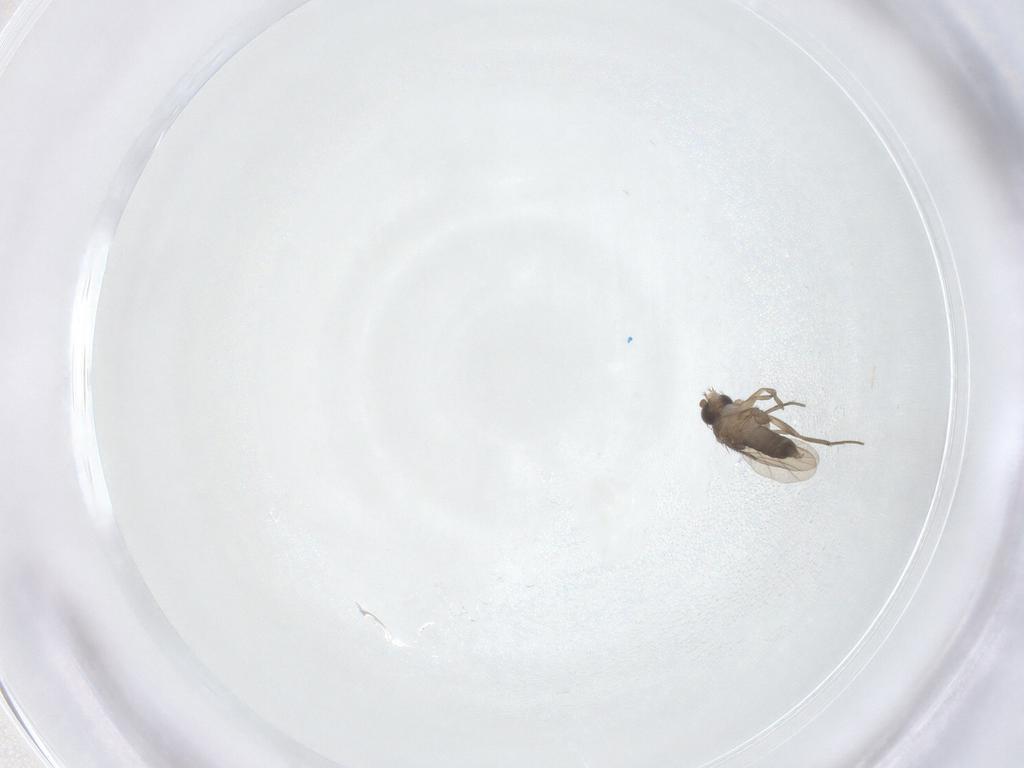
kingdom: Animalia
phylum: Arthropoda
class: Insecta
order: Diptera
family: Phoridae
